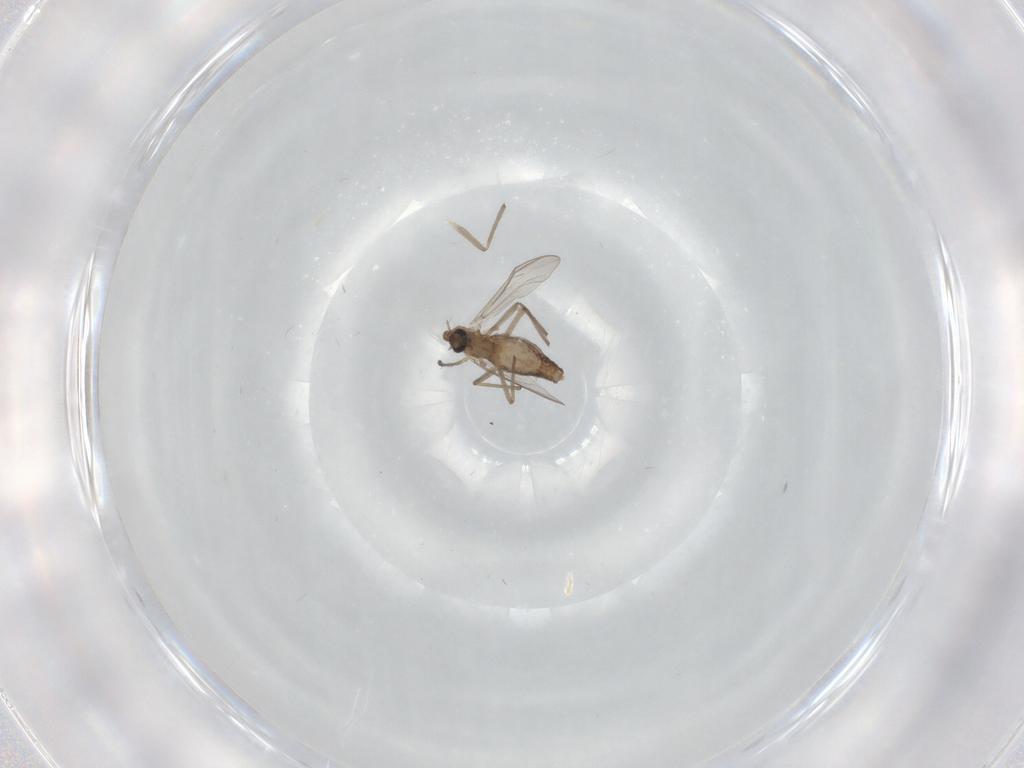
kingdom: Animalia
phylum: Arthropoda
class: Insecta
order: Diptera
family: Chironomidae
